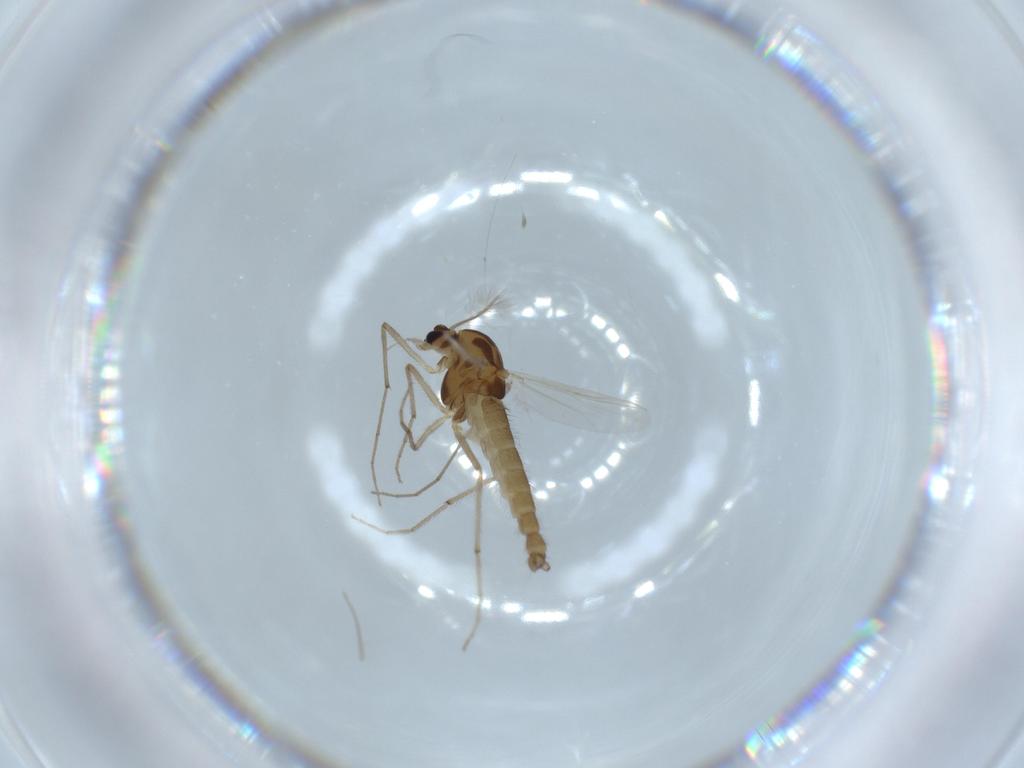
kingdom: Animalia
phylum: Arthropoda
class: Insecta
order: Diptera
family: Chironomidae
